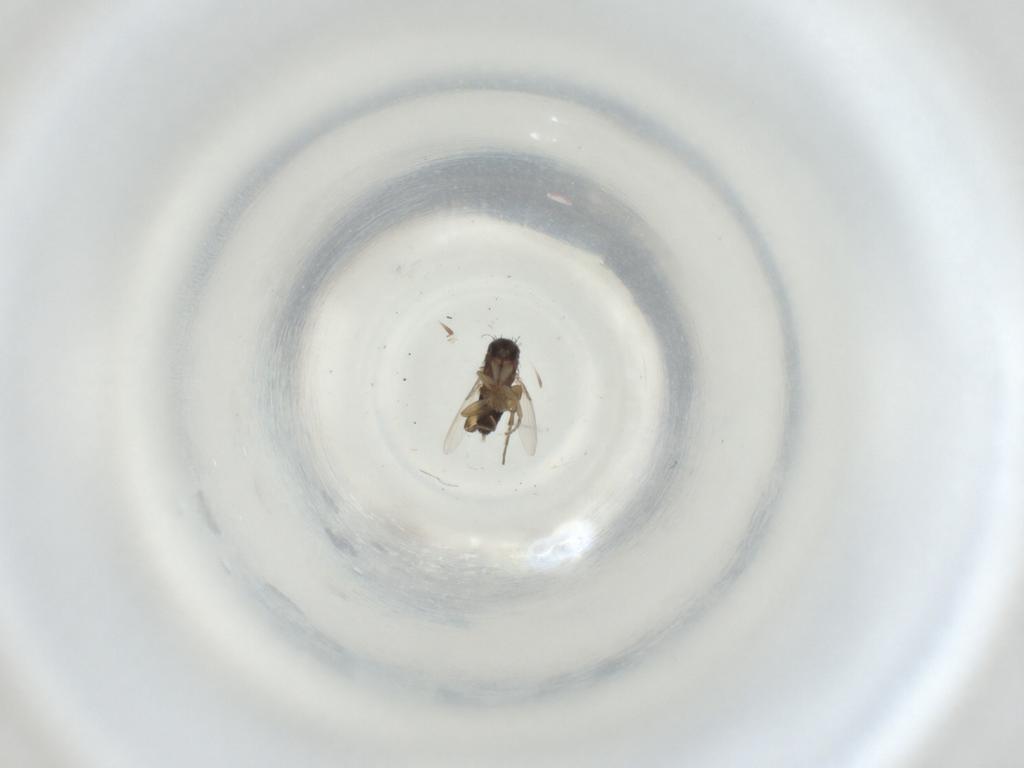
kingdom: Animalia
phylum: Arthropoda
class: Insecta
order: Diptera
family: Phoridae
